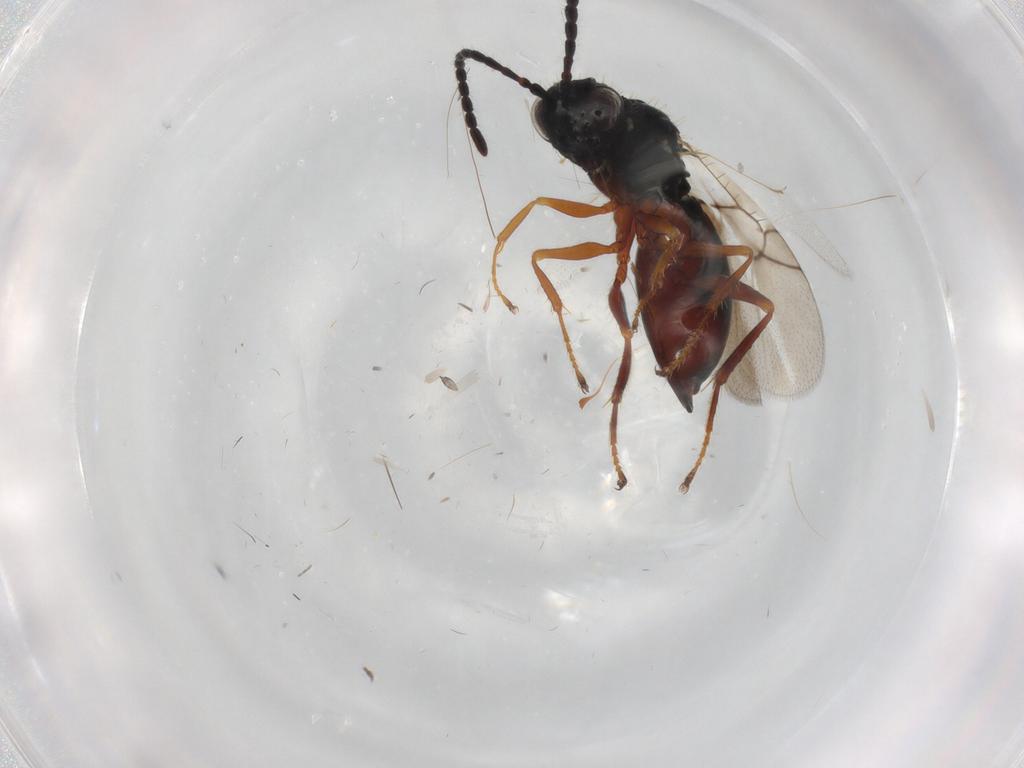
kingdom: Animalia
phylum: Arthropoda
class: Insecta
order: Hymenoptera
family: Figitidae
